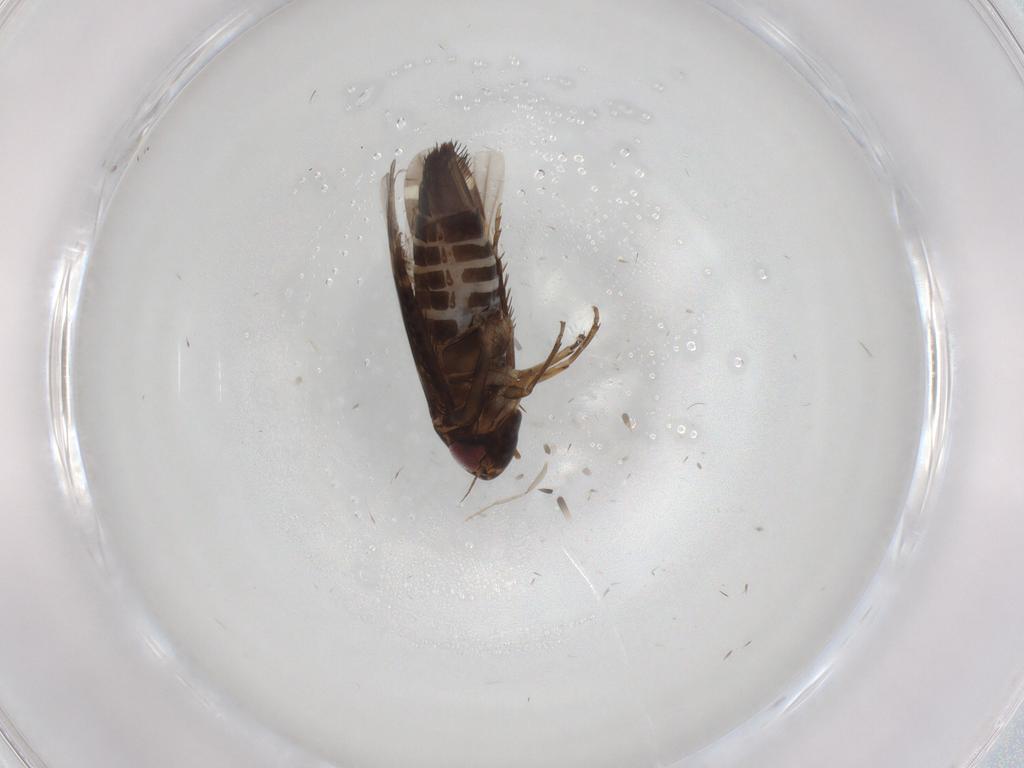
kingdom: Animalia
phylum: Arthropoda
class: Insecta
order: Hemiptera
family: Cicadellidae
